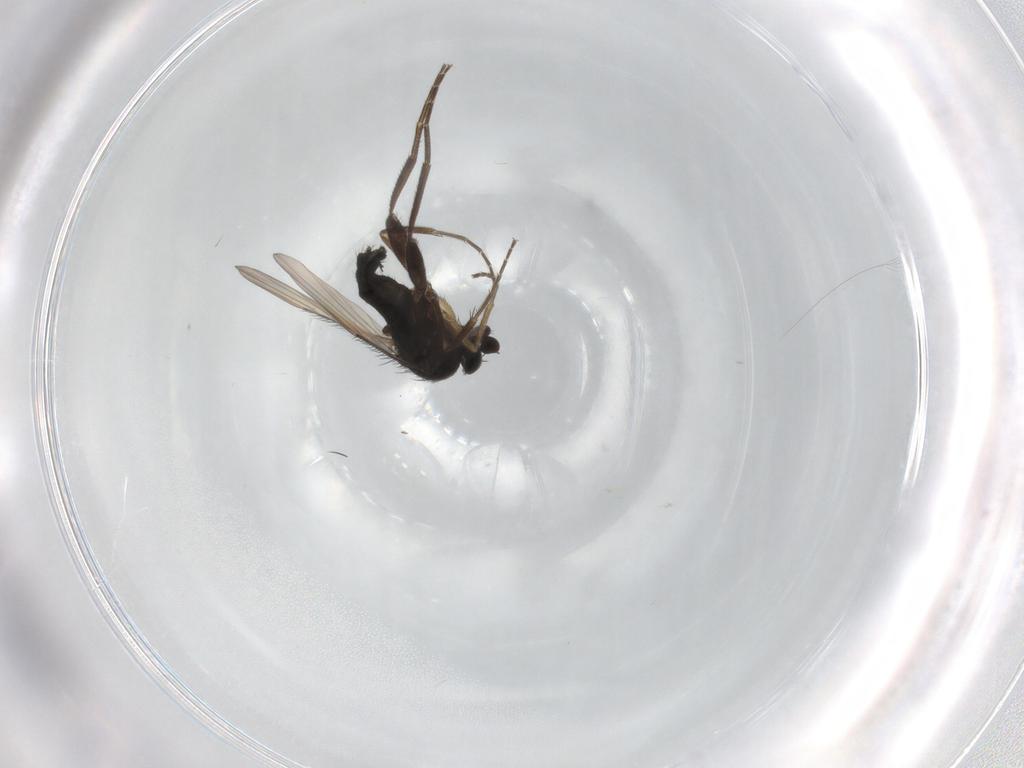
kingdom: Animalia
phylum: Arthropoda
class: Insecta
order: Diptera
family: Phoridae
